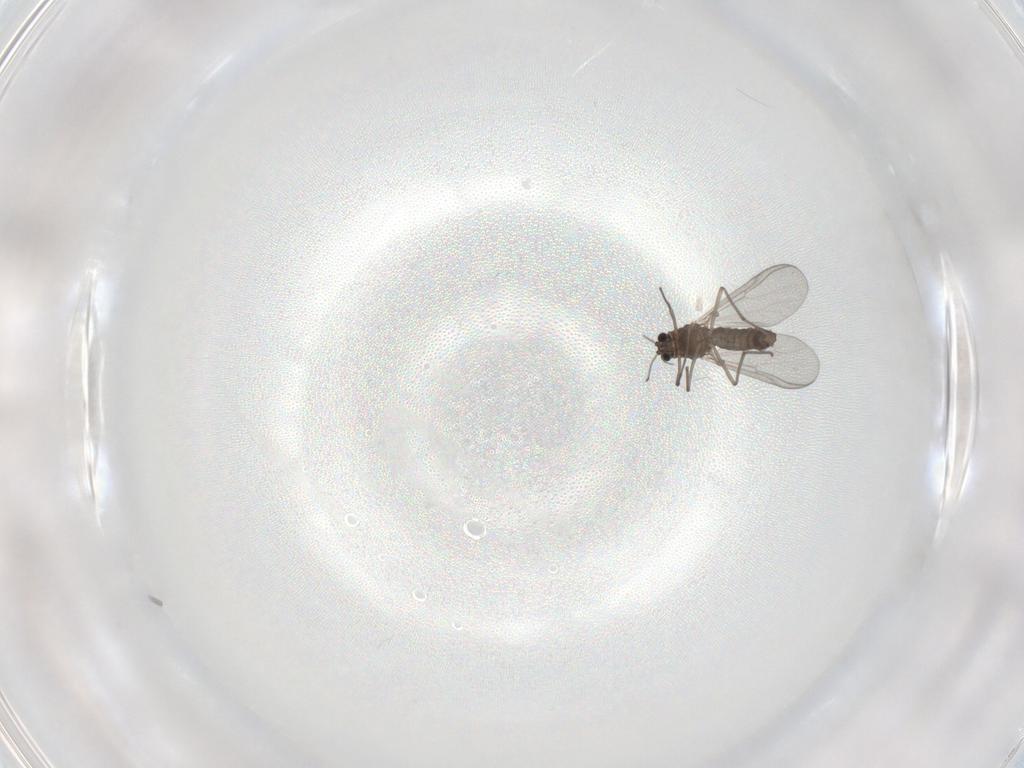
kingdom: Animalia
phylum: Arthropoda
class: Insecta
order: Diptera
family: Chironomidae
